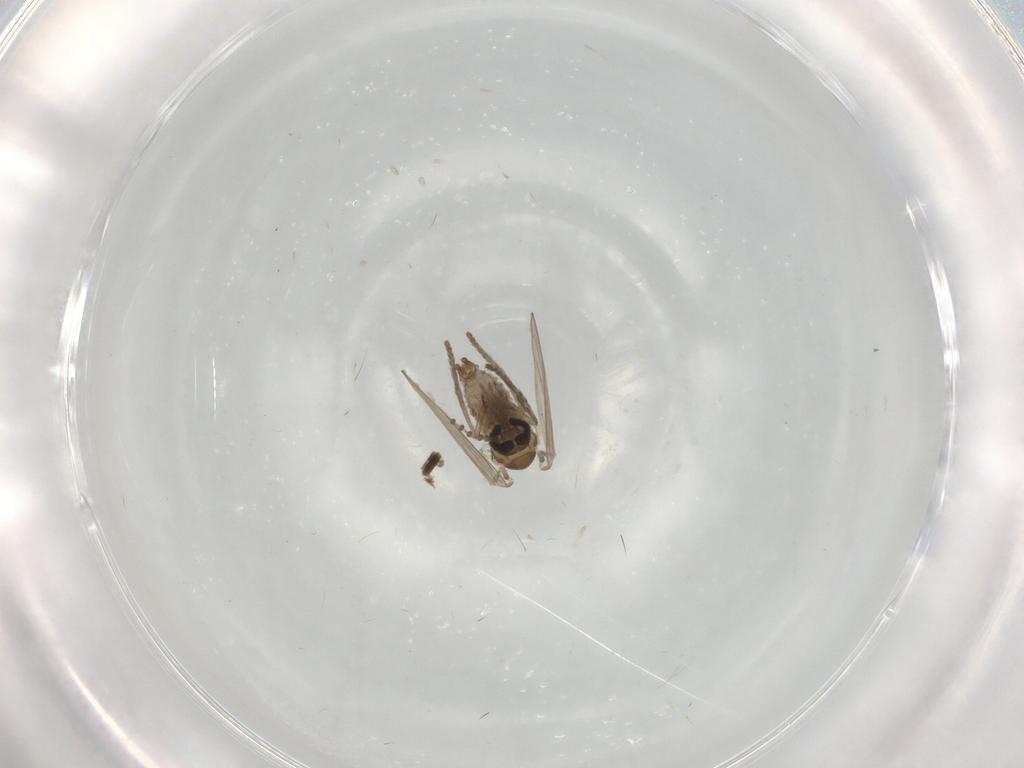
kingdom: Animalia
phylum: Arthropoda
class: Insecta
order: Diptera
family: Psychodidae
